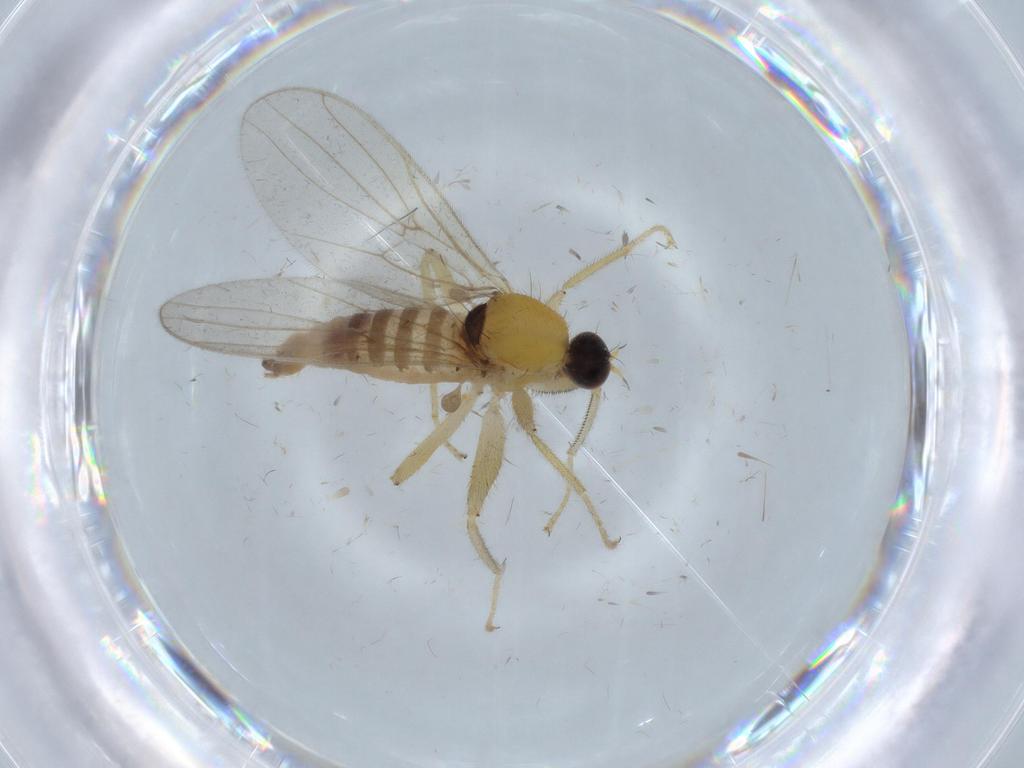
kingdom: Animalia
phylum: Arthropoda
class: Insecta
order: Diptera
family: Hybotidae
